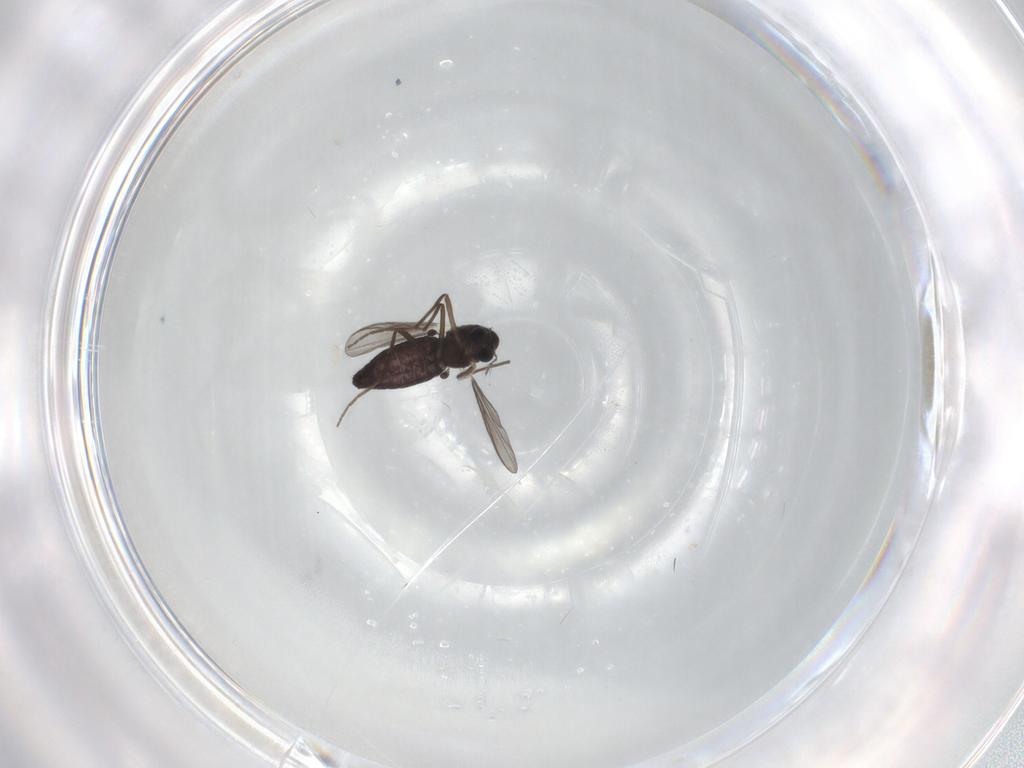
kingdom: Animalia
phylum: Arthropoda
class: Insecta
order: Diptera
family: Chironomidae
